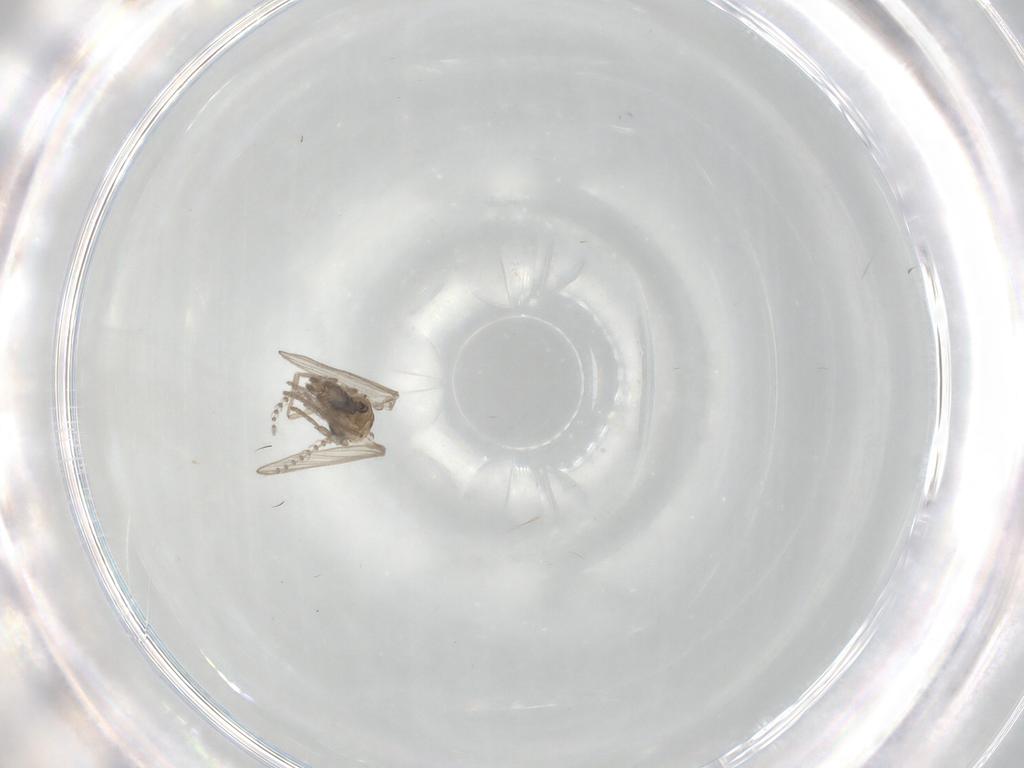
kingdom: Animalia
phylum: Arthropoda
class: Insecta
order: Diptera
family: Psychodidae
